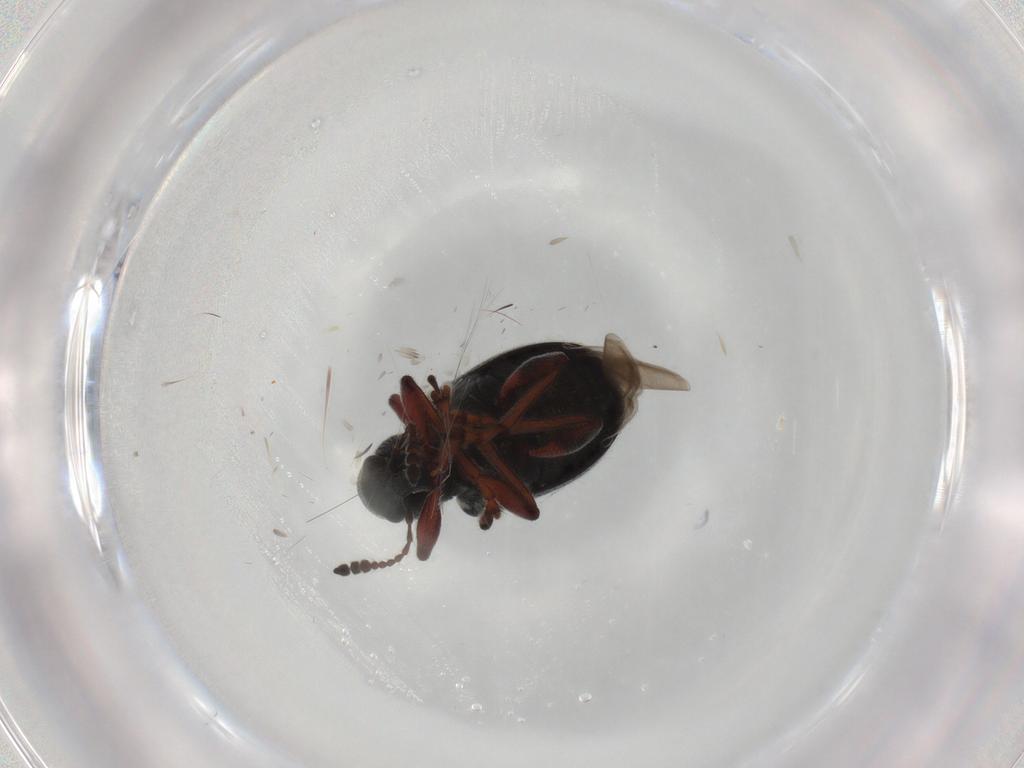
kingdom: Animalia
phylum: Arthropoda
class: Insecta
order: Coleoptera
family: Attelabidae
